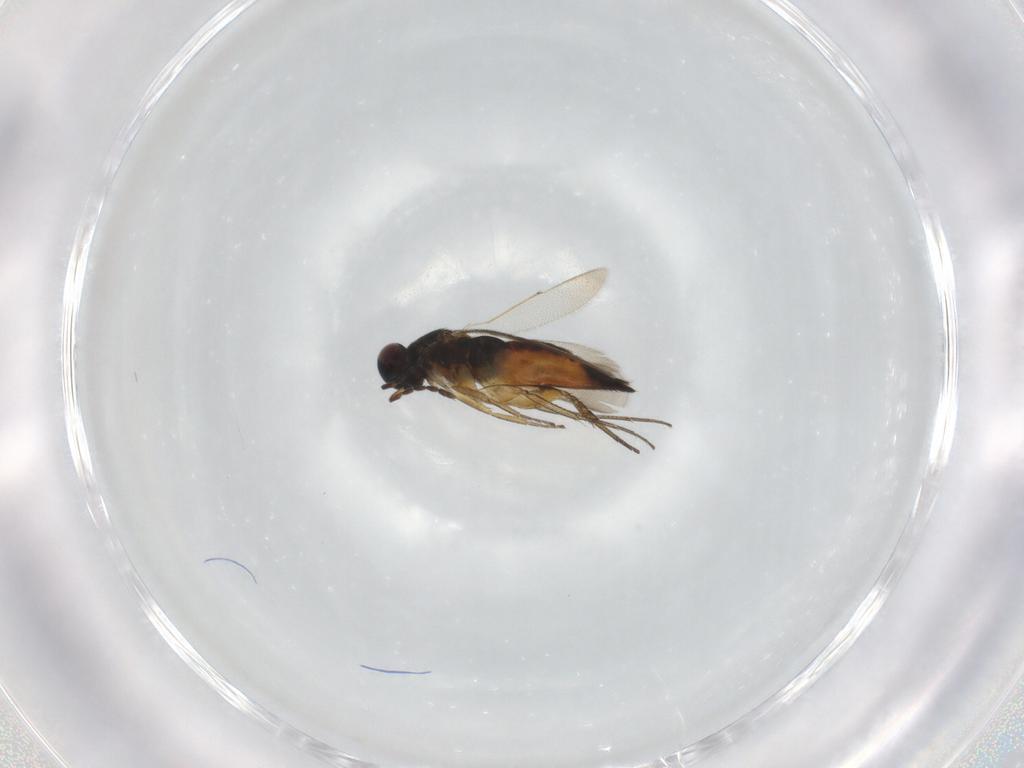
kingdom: Animalia
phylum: Arthropoda
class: Insecta
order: Hymenoptera
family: Eulophidae
